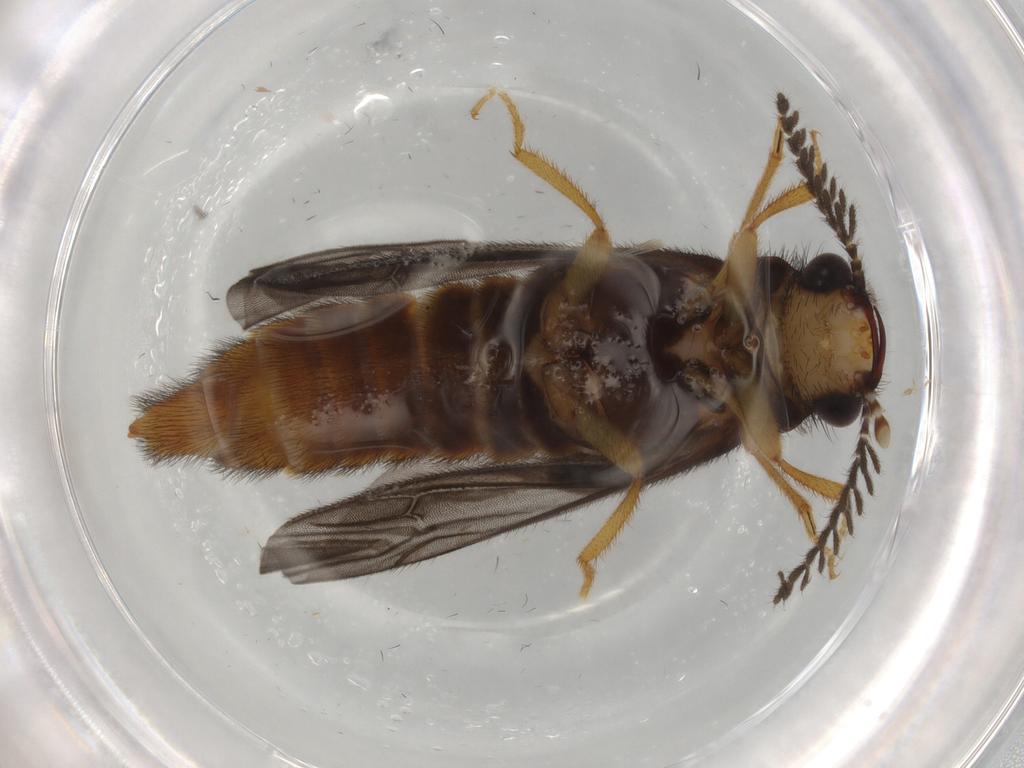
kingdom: Animalia
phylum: Arthropoda
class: Insecta
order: Coleoptera
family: Phengodidae
